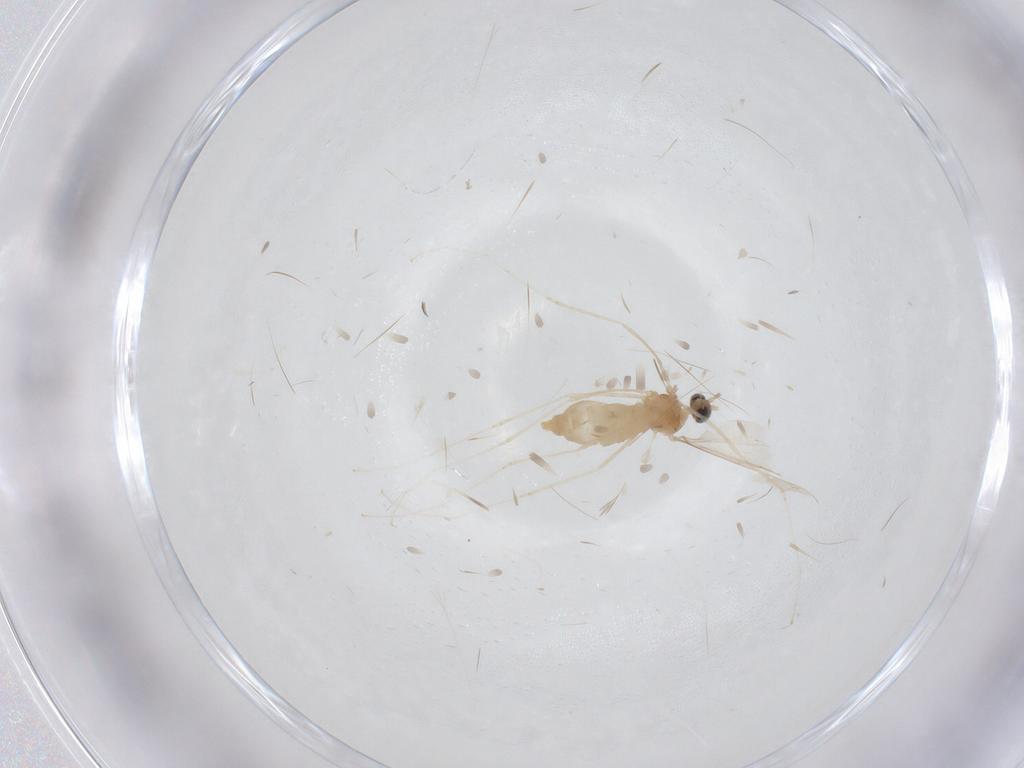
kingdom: Animalia
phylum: Arthropoda
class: Insecta
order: Diptera
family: Cecidomyiidae
